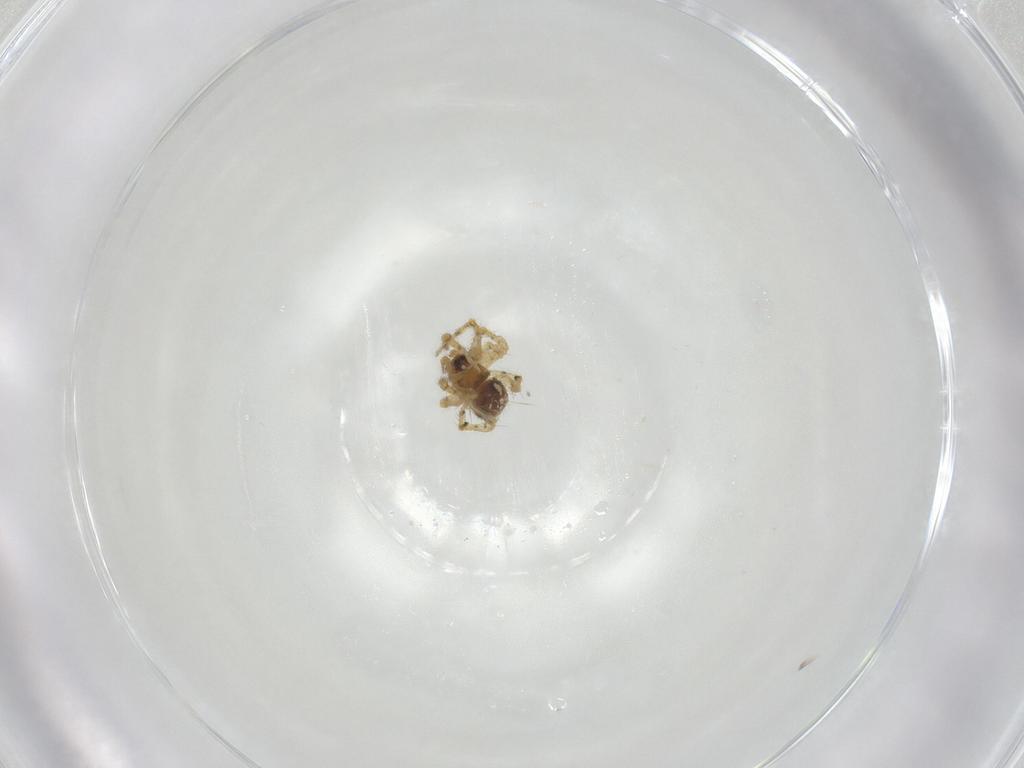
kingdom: Animalia
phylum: Arthropoda
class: Arachnida
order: Araneae
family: Theridiidae
